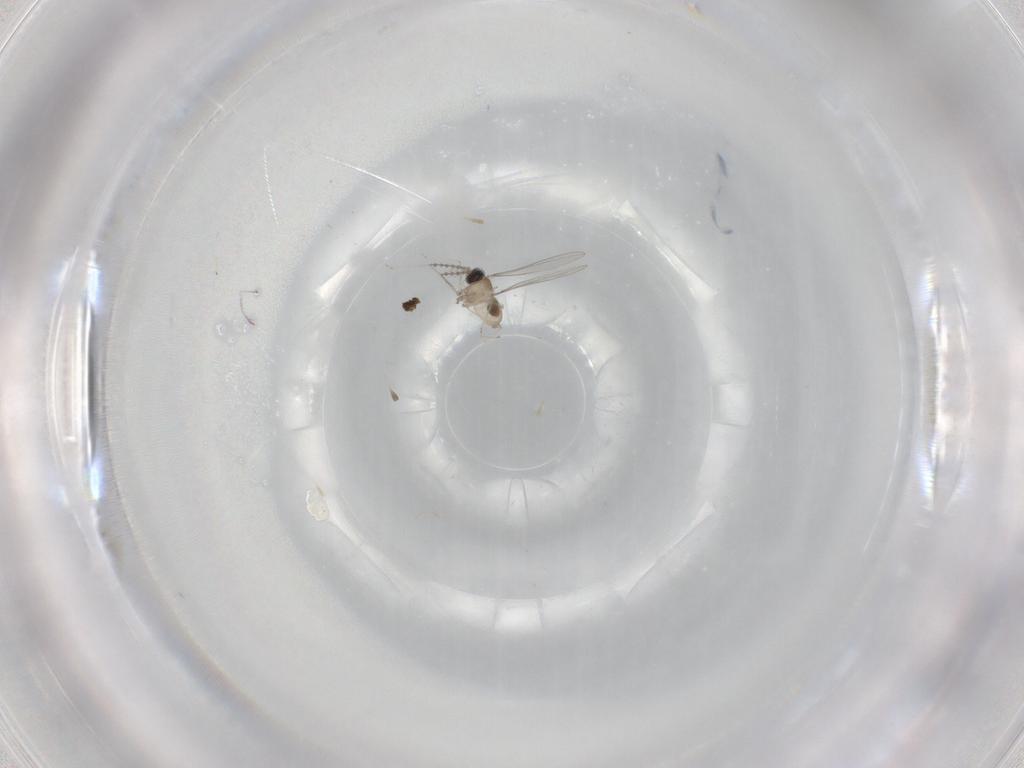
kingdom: Animalia
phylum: Arthropoda
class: Insecta
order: Diptera
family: Cecidomyiidae
